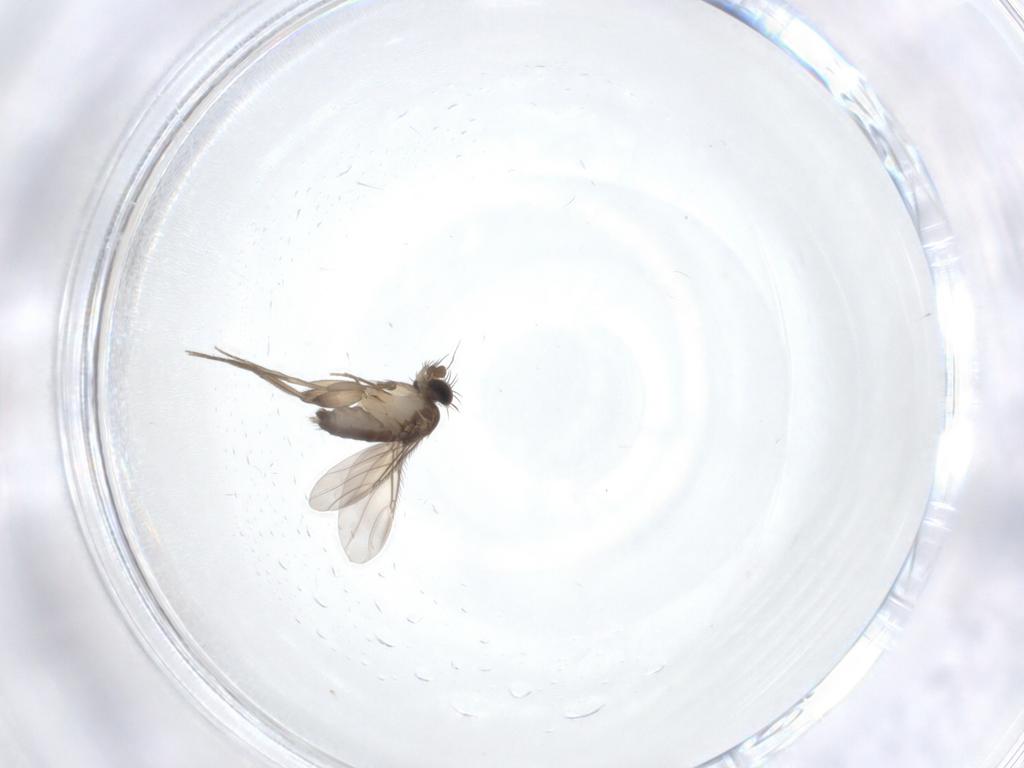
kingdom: Animalia
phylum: Arthropoda
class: Insecta
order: Diptera
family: Phoridae
